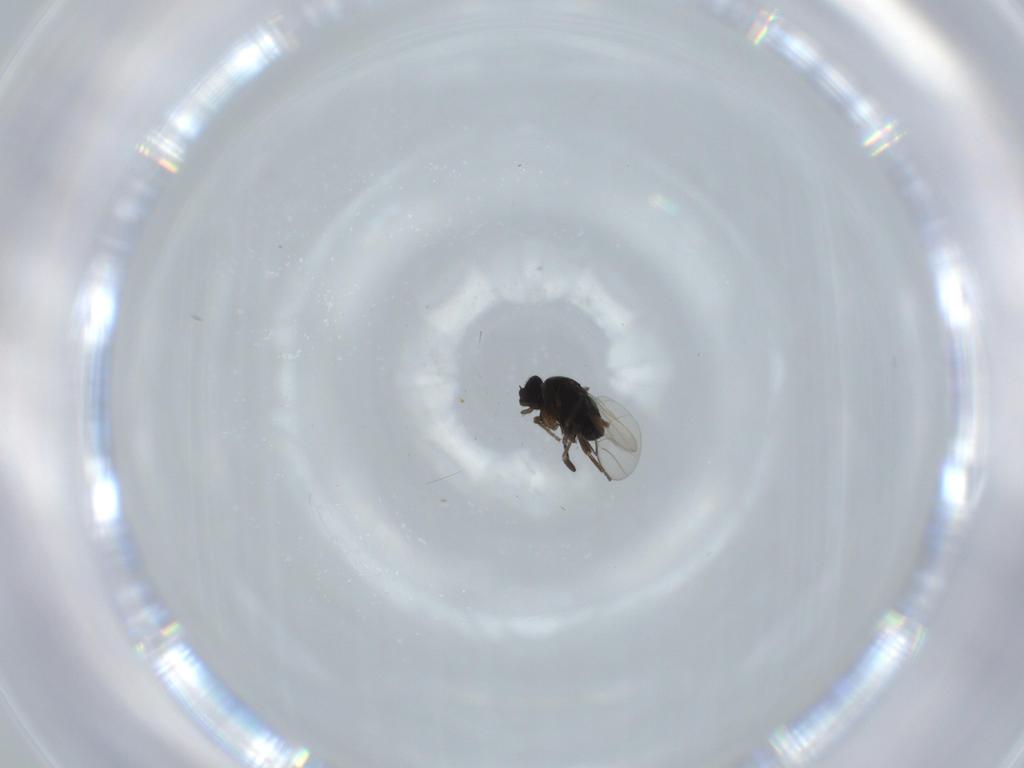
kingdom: Animalia
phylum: Arthropoda
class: Insecta
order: Diptera
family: Phoridae
